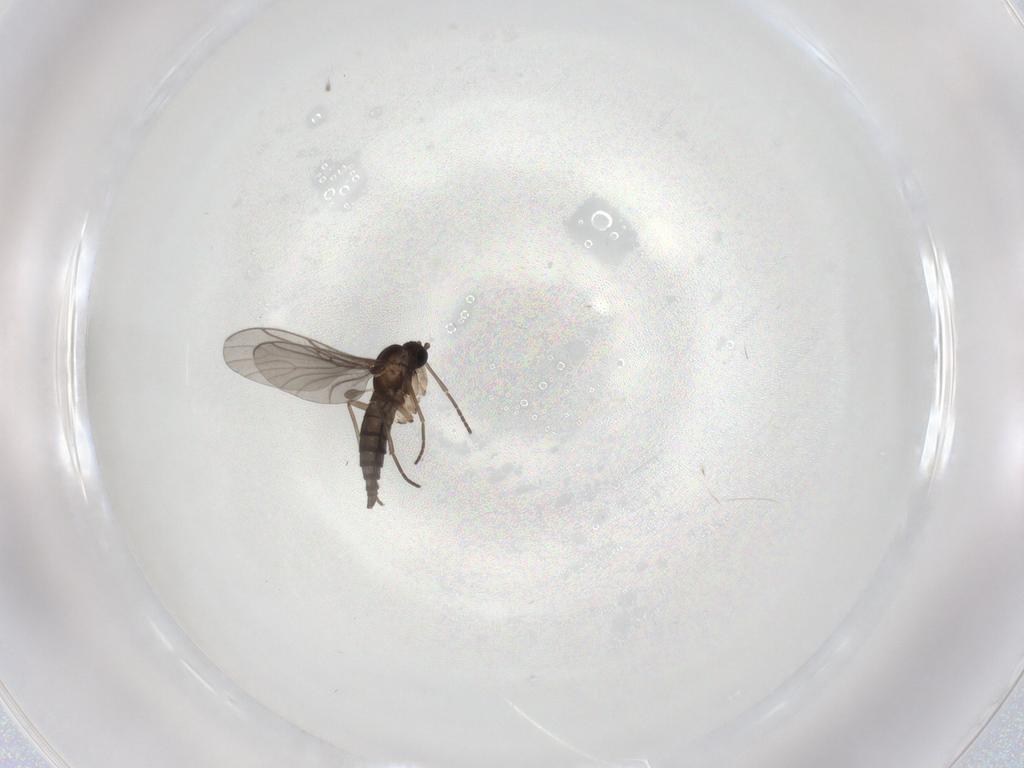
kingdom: Animalia
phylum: Arthropoda
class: Insecta
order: Diptera
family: Sciaridae
